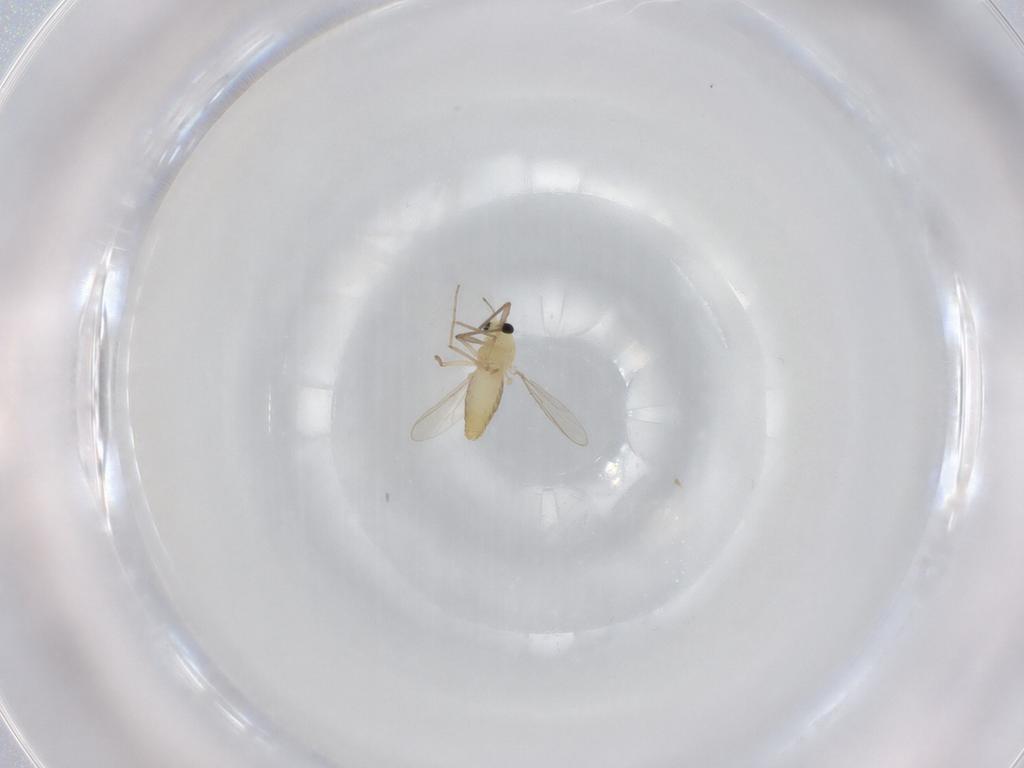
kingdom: Animalia
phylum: Arthropoda
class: Insecta
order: Diptera
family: Chironomidae
